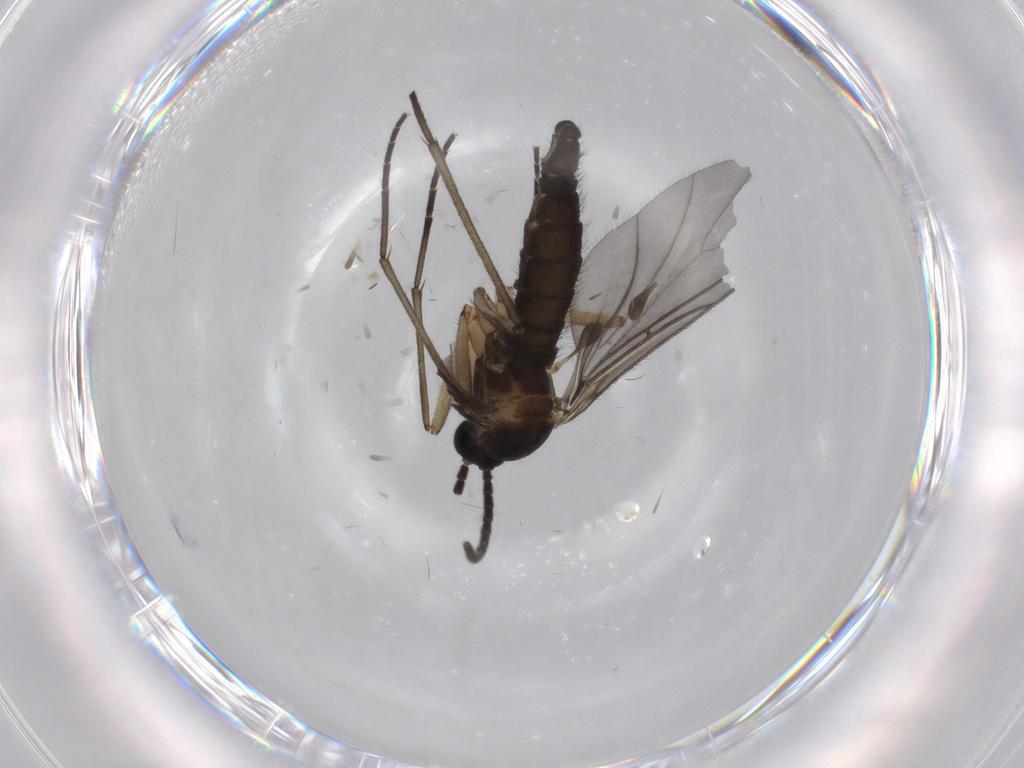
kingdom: Animalia
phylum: Arthropoda
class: Insecta
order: Diptera
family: Sciaridae
